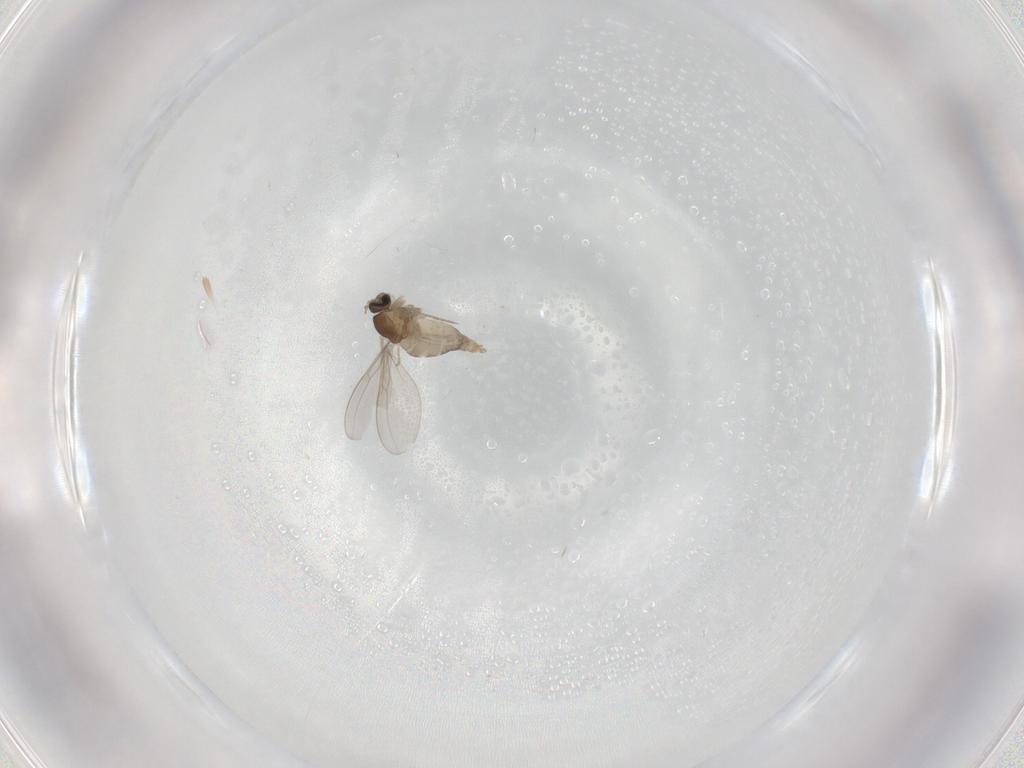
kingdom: Animalia
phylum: Arthropoda
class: Insecta
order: Diptera
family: Cecidomyiidae
